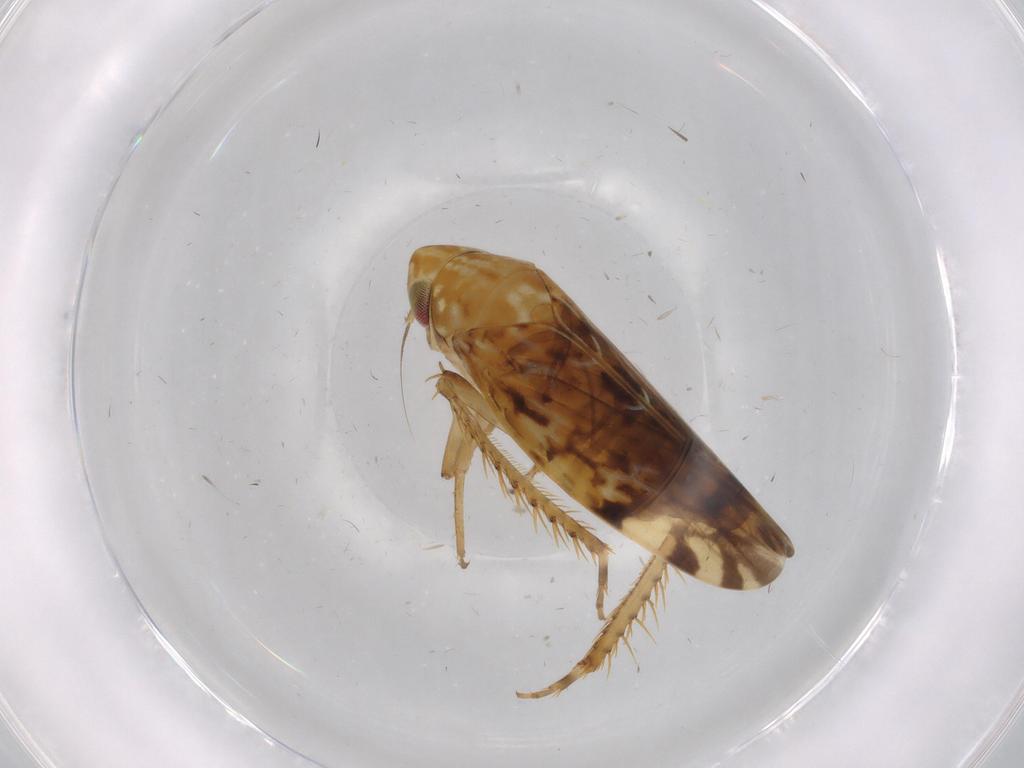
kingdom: Animalia
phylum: Arthropoda
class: Insecta
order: Hemiptera
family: Cicadellidae
